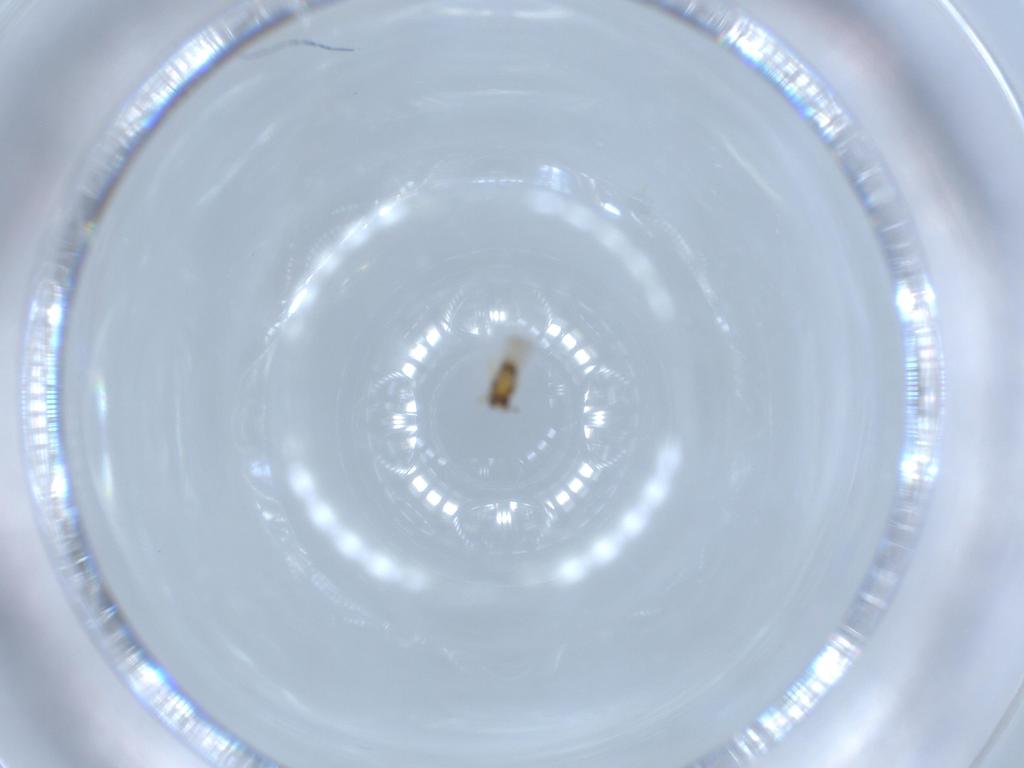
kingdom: Animalia
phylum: Arthropoda
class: Insecta
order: Hymenoptera
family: Aphelinidae
